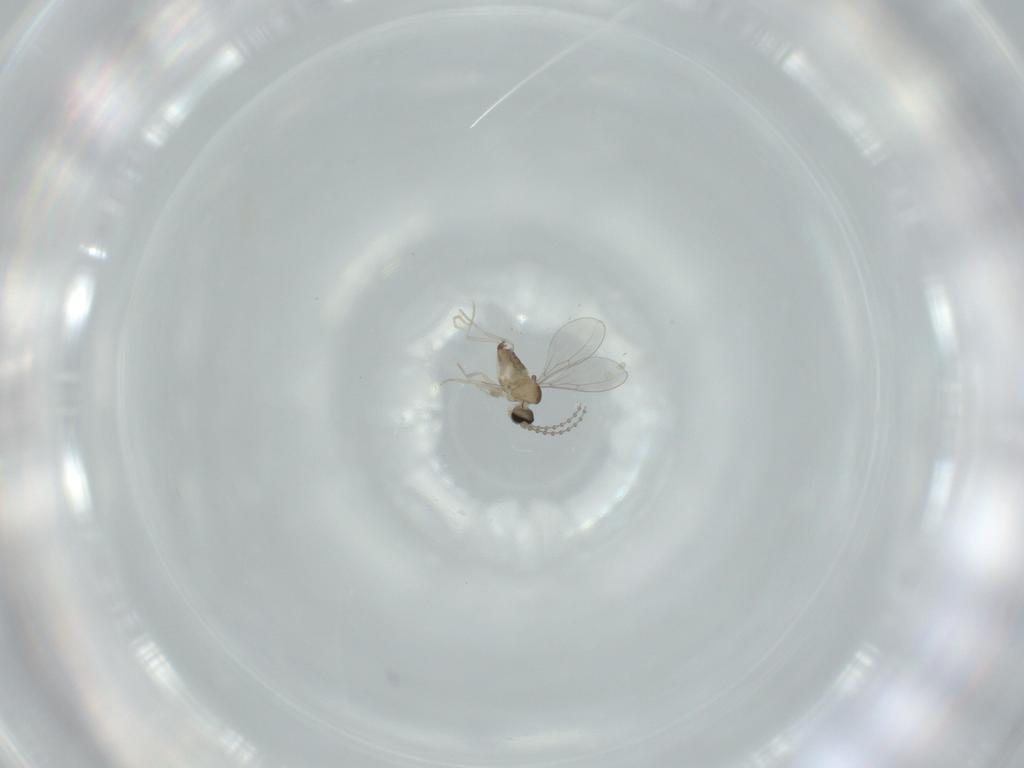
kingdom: Animalia
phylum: Arthropoda
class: Insecta
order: Diptera
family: Cecidomyiidae
